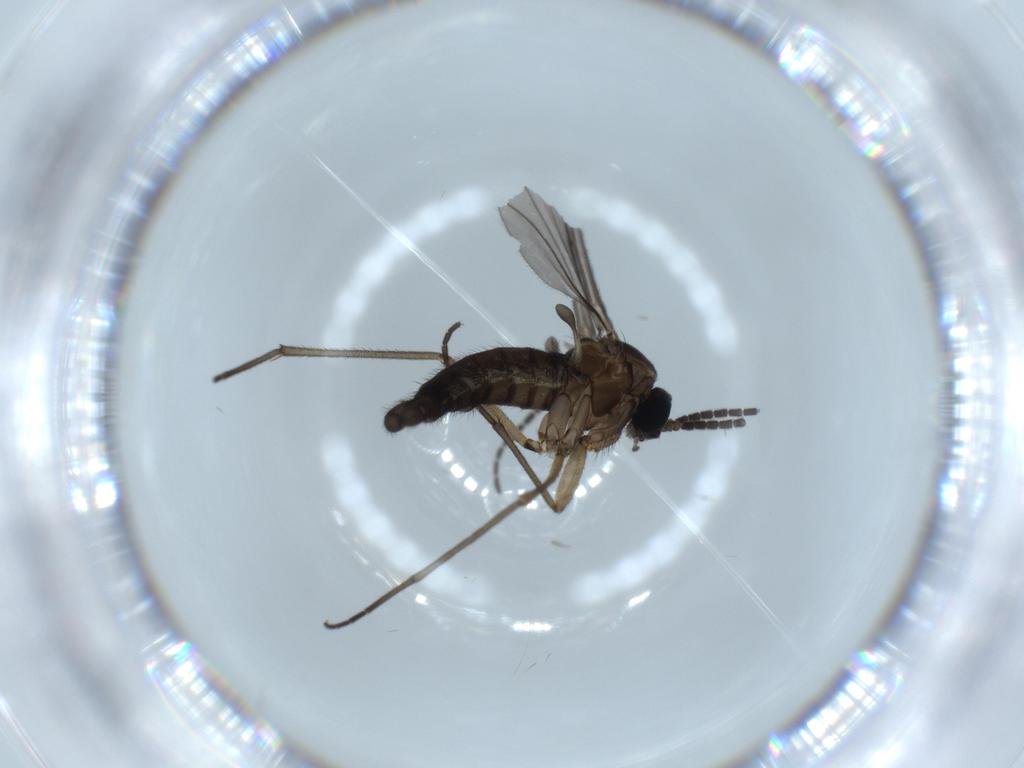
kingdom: Animalia
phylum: Arthropoda
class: Insecta
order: Diptera
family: Sciaridae
